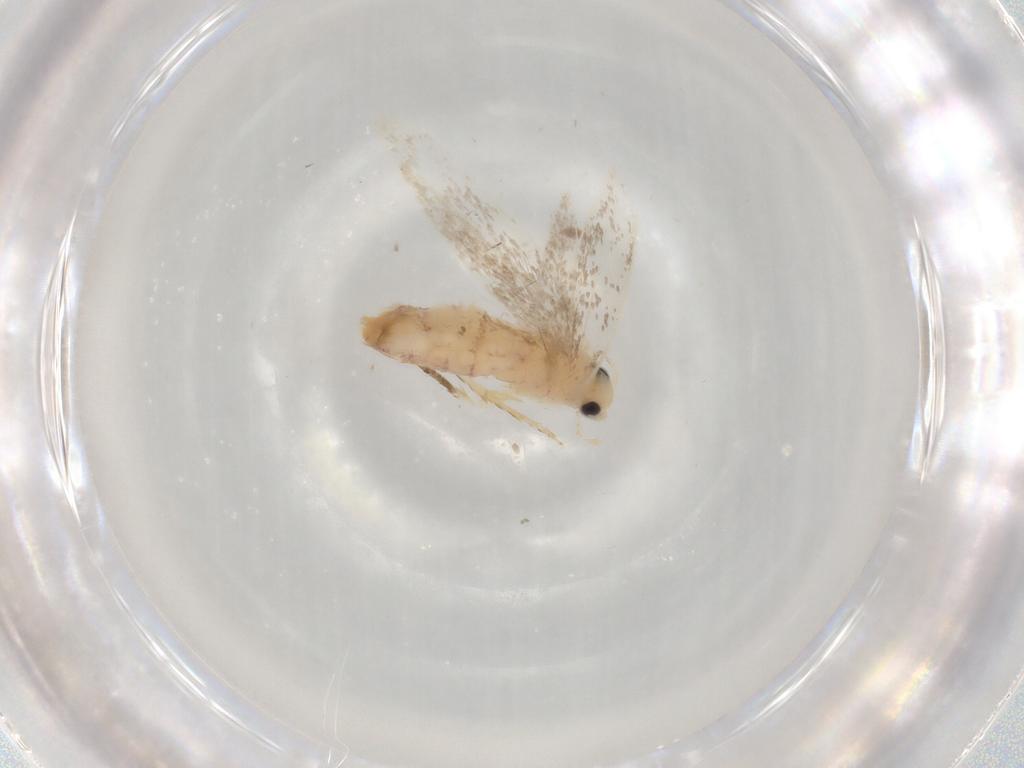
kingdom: Animalia
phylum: Arthropoda
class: Insecta
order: Lepidoptera
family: Dryadaulidae
